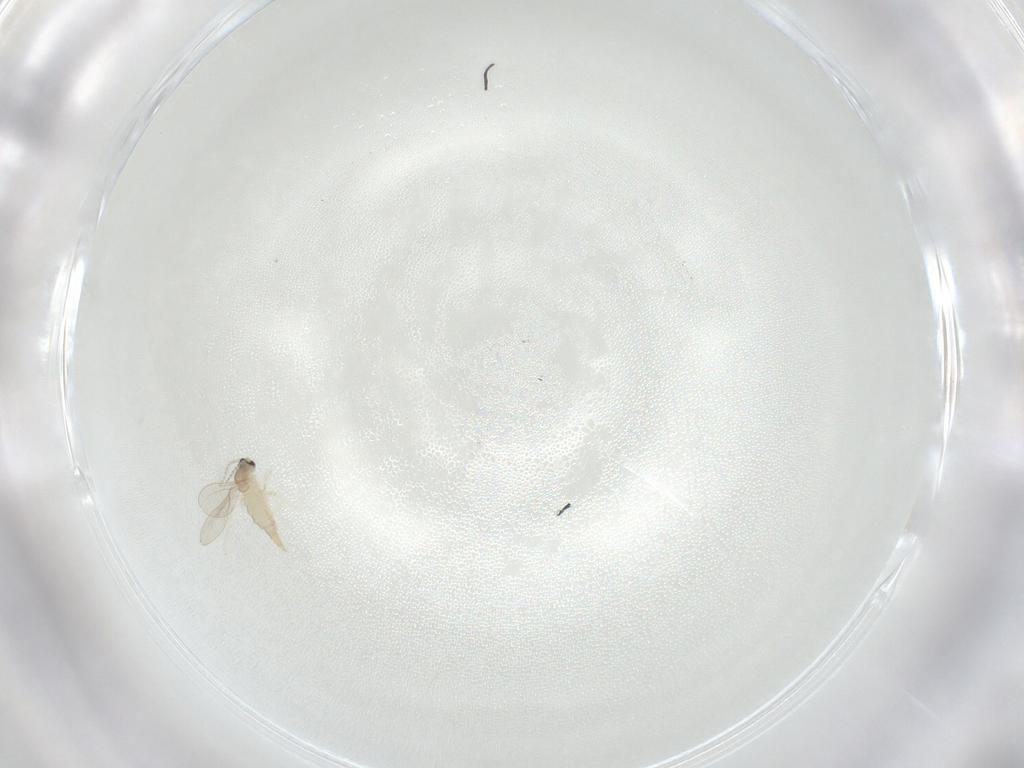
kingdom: Animalia
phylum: Arthropoda
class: Insecta
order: Diptera
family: Cecidomyiidae
